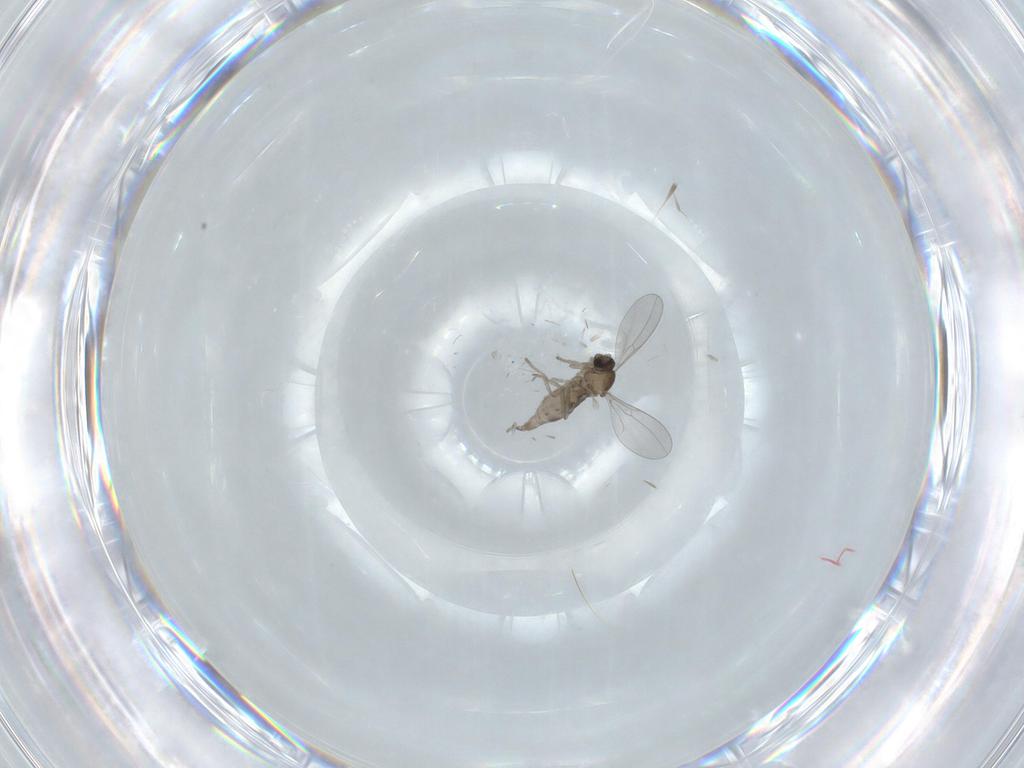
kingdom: Animalia
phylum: Arthropoda
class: Insecta
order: Diptera
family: Cecidomyiidae
